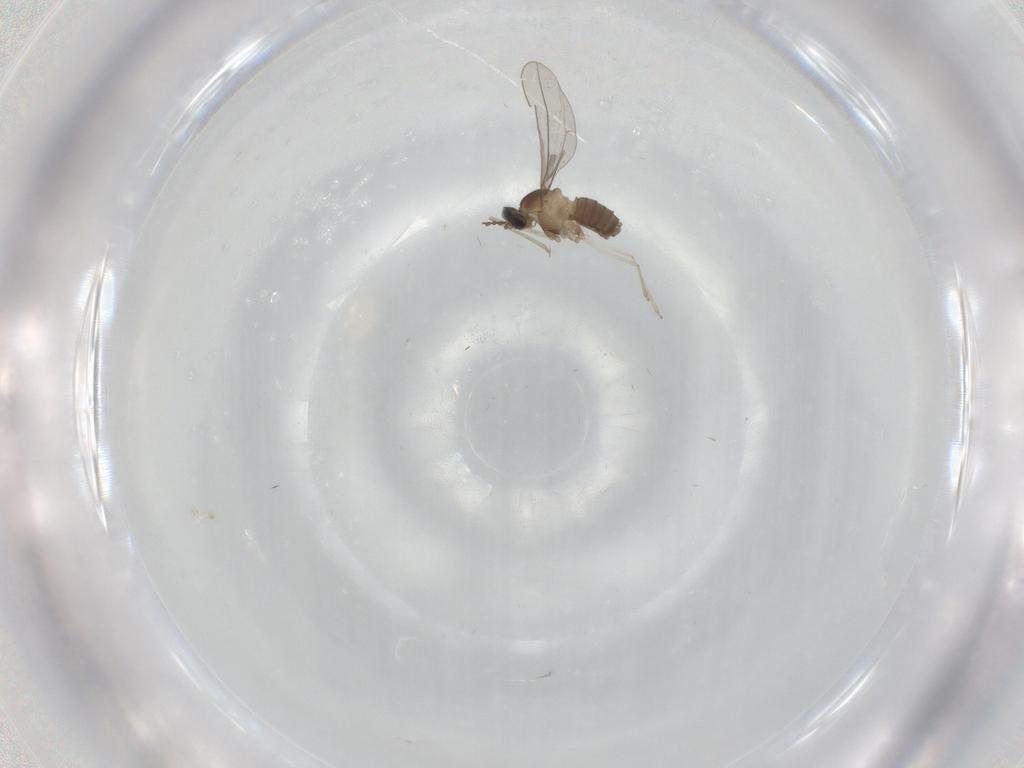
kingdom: Animalia
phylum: Arthropoda
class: Insecta
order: Diptera
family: Cecidomyiidae
